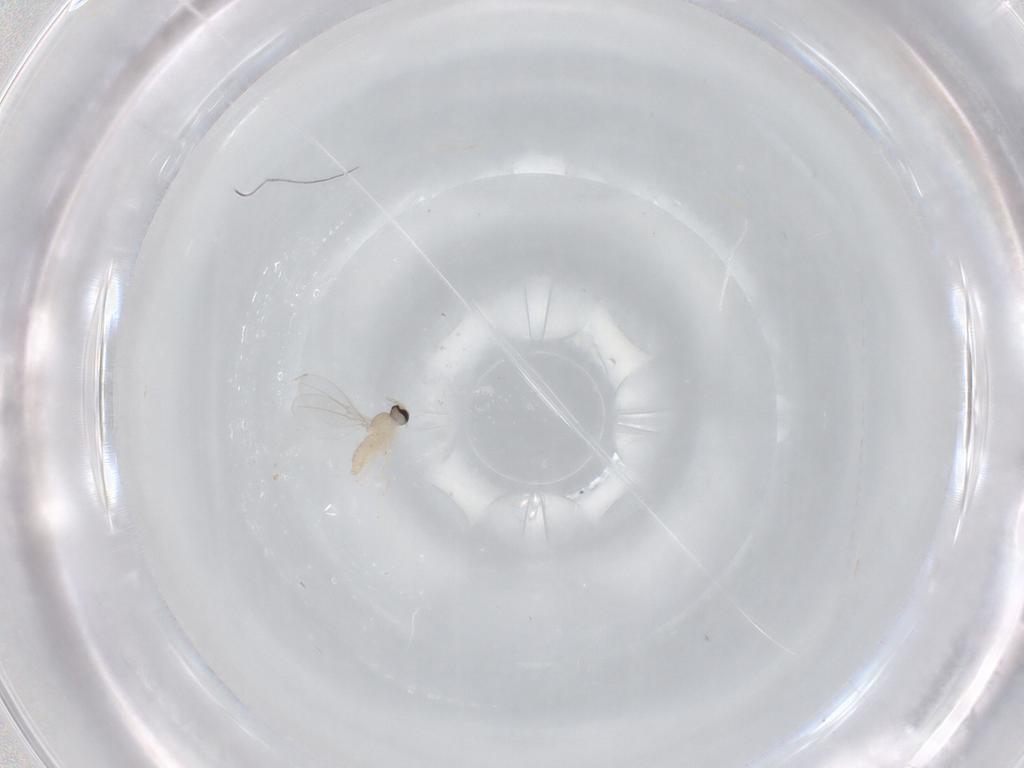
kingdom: Animalia
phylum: Arthropoda
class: Insecta
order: Diptera
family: Cecidomyiidae
